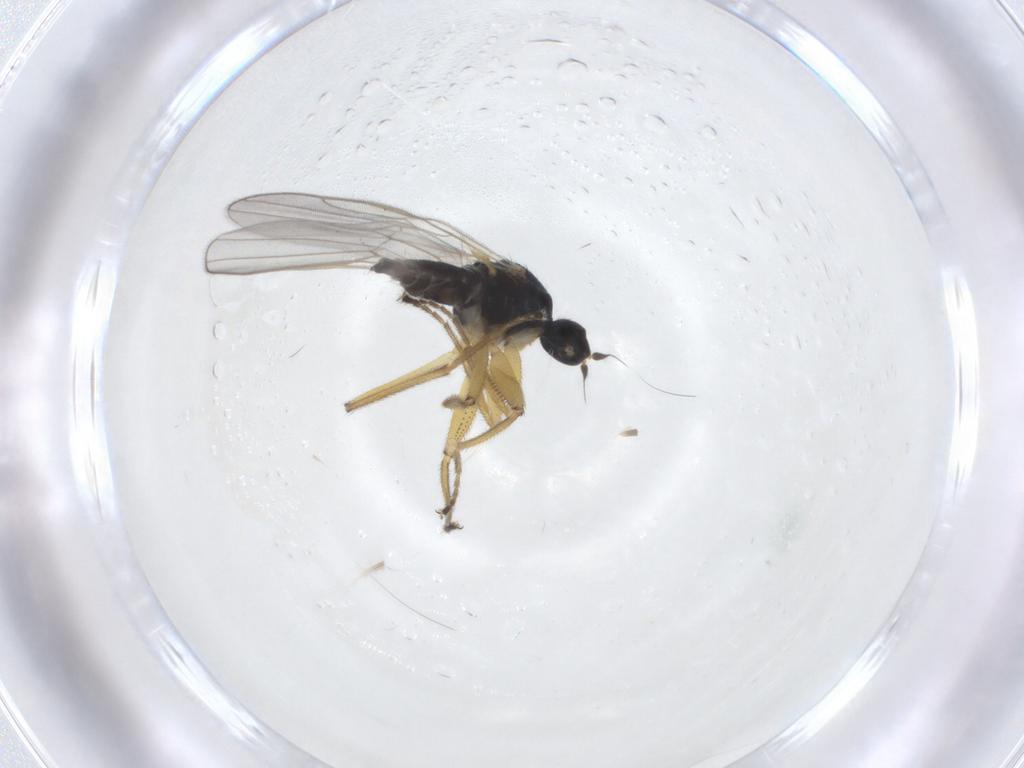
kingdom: Animalia
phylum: Arthropoda
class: Insecta
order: Diptera
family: Hybotidae
